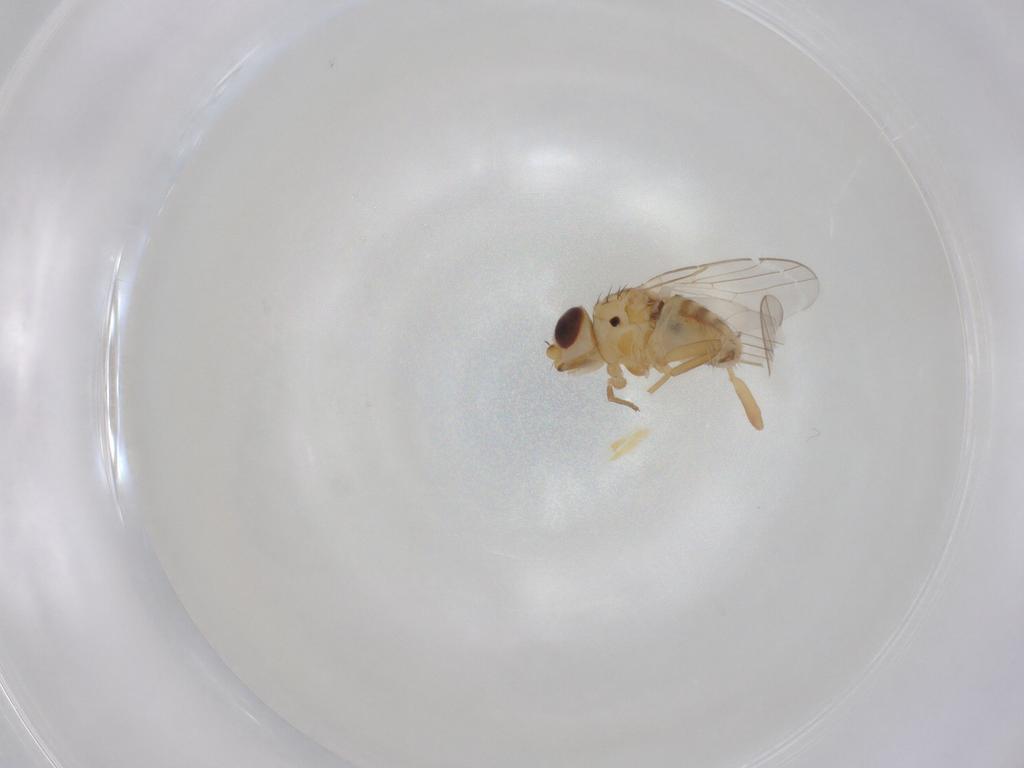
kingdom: Animalia
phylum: Arthropoda
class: Insecta
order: Diptera
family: Chloropidae
